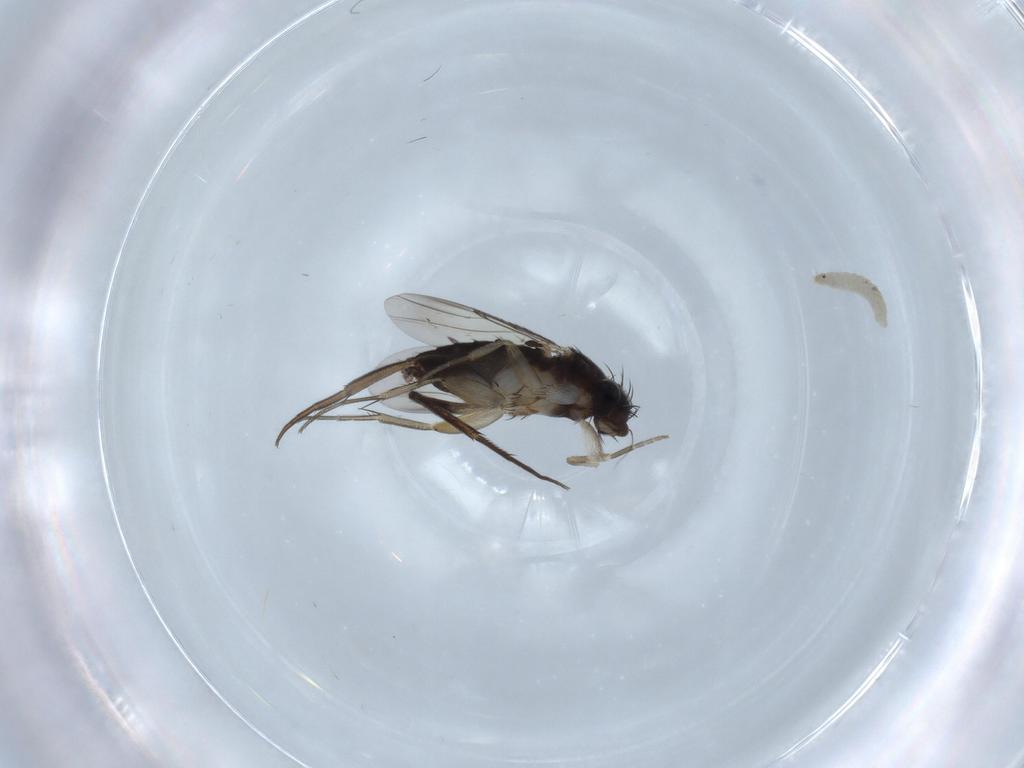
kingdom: Animalia
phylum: Arthropoda
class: Insecta
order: Diptera
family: Phoridae
